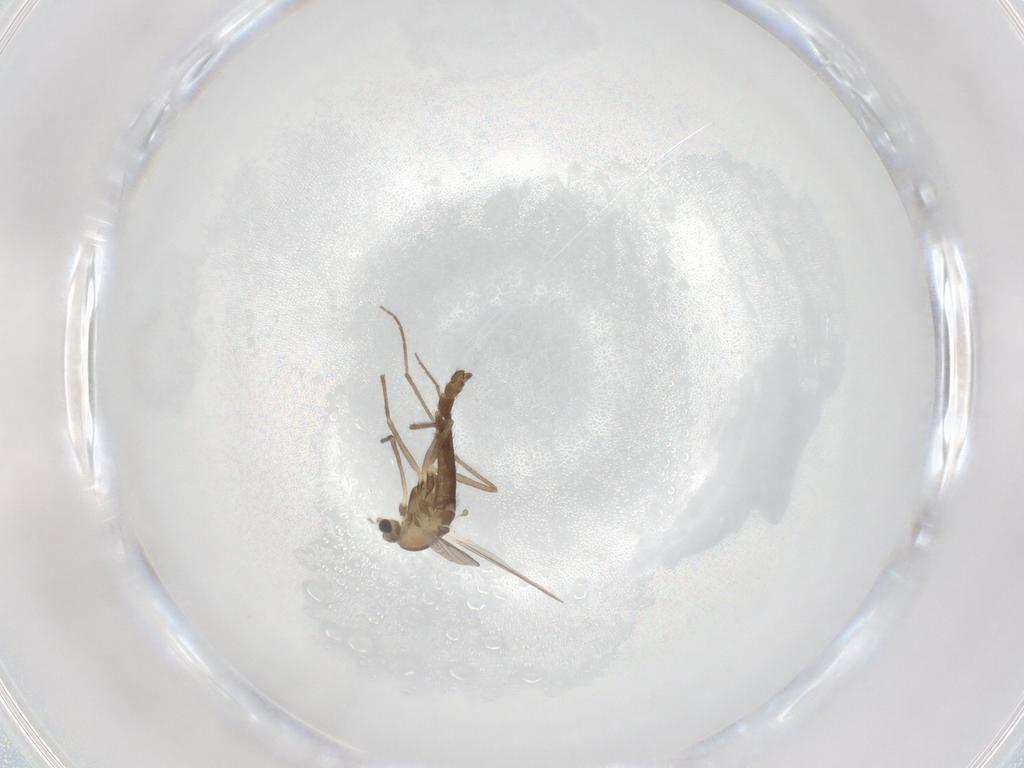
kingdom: Animalia
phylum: Arthropoda
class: Insecta
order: Diptera
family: Chironomidae
